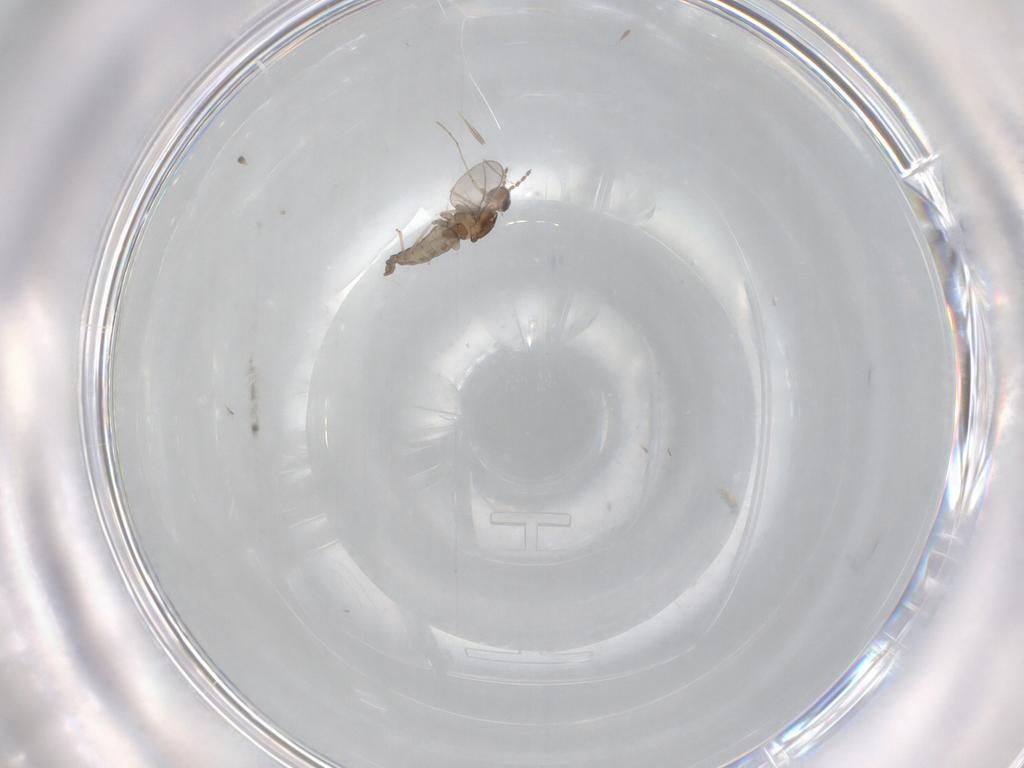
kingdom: Animalia
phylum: Arthropoda
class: Insecta
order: Diptera
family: Cecidomyiidae
